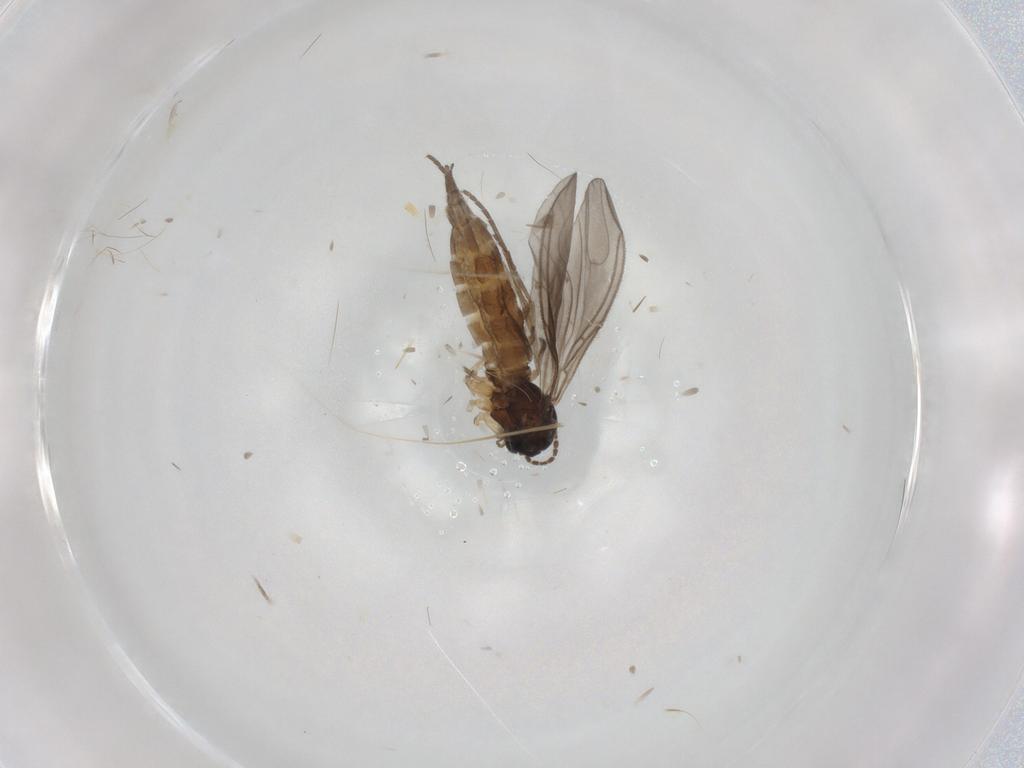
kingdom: Animalia
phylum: Arthropoda
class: Insecta
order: Diptera
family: Sciaridae
